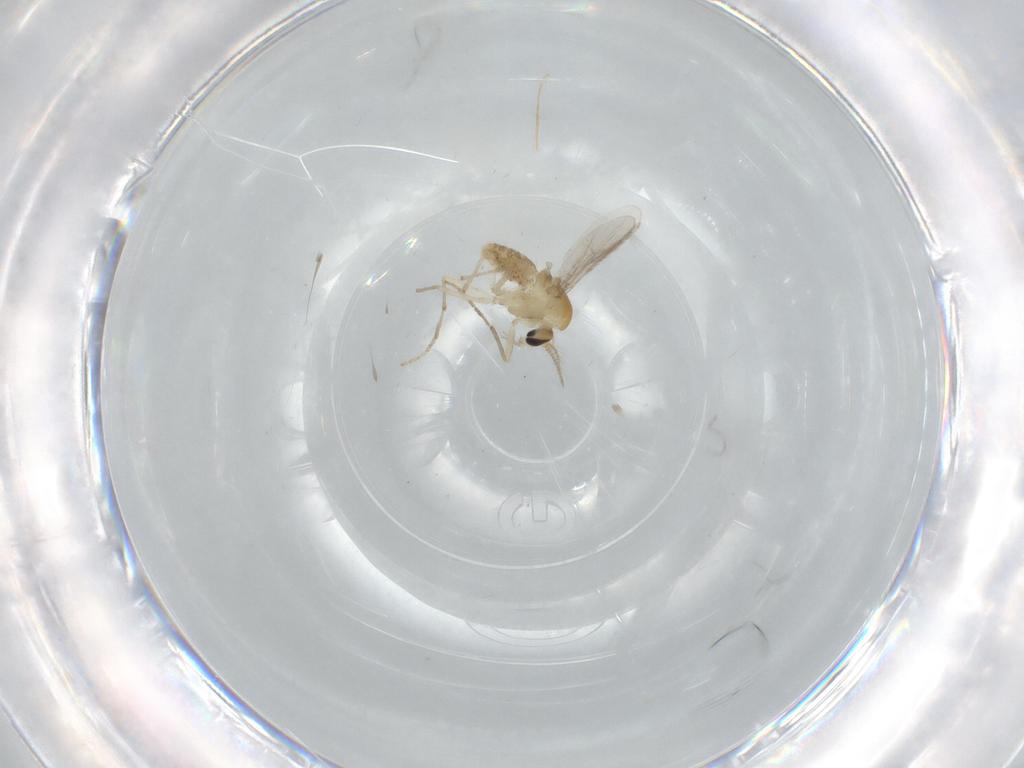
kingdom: Animalia
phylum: Arthropoda
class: Insecta
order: Diptera
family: Chironomidae
